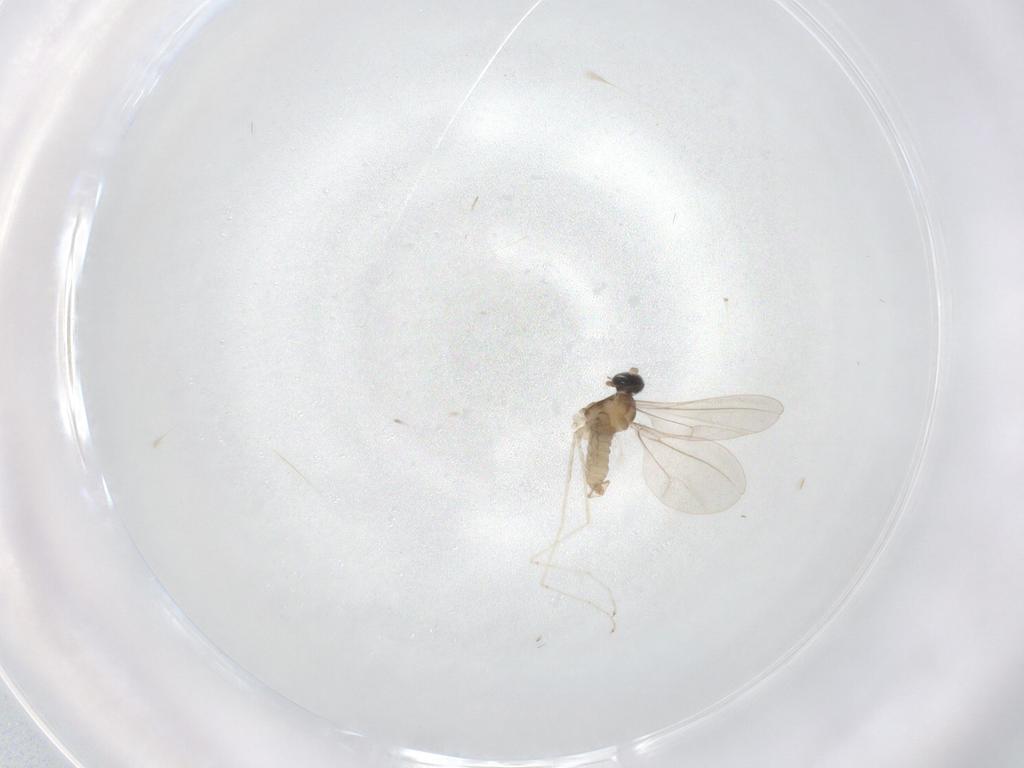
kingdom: Animalia
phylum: Arthropoda
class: Insecta
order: Diptera
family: Cecidomyiidae
